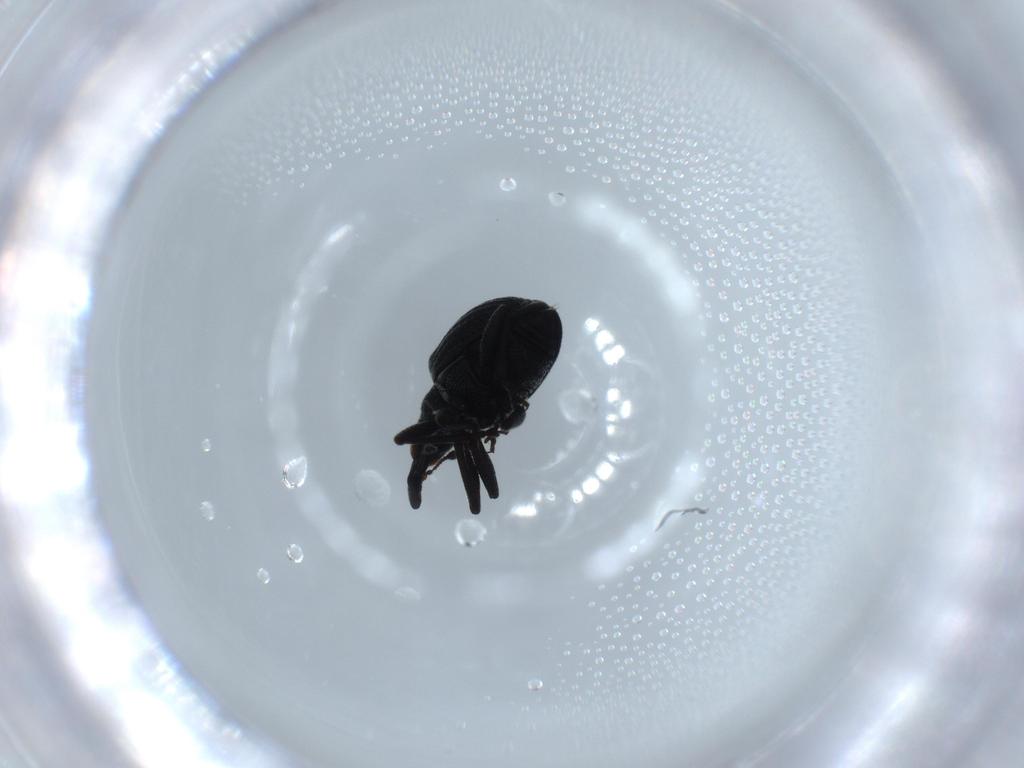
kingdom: Animalia
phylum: Arthropoda
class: Insecta
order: Coleoptera
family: Brentidae
